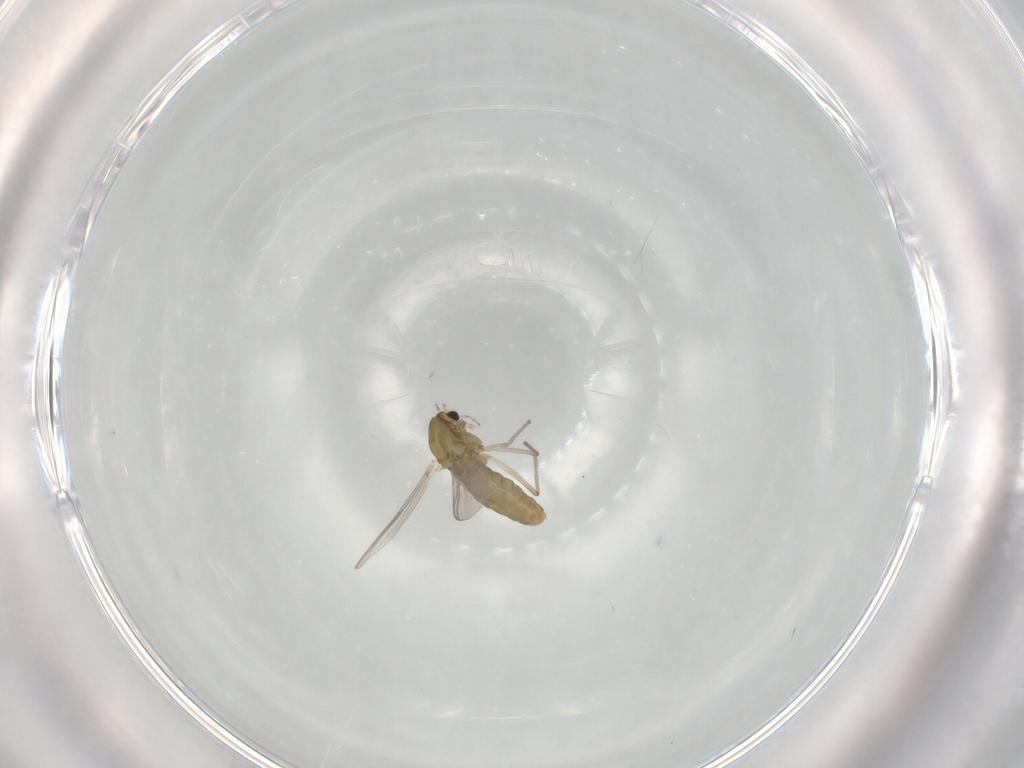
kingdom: Animalia
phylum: Arthropoda
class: Insecta
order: Diptera
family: Chironomidae
